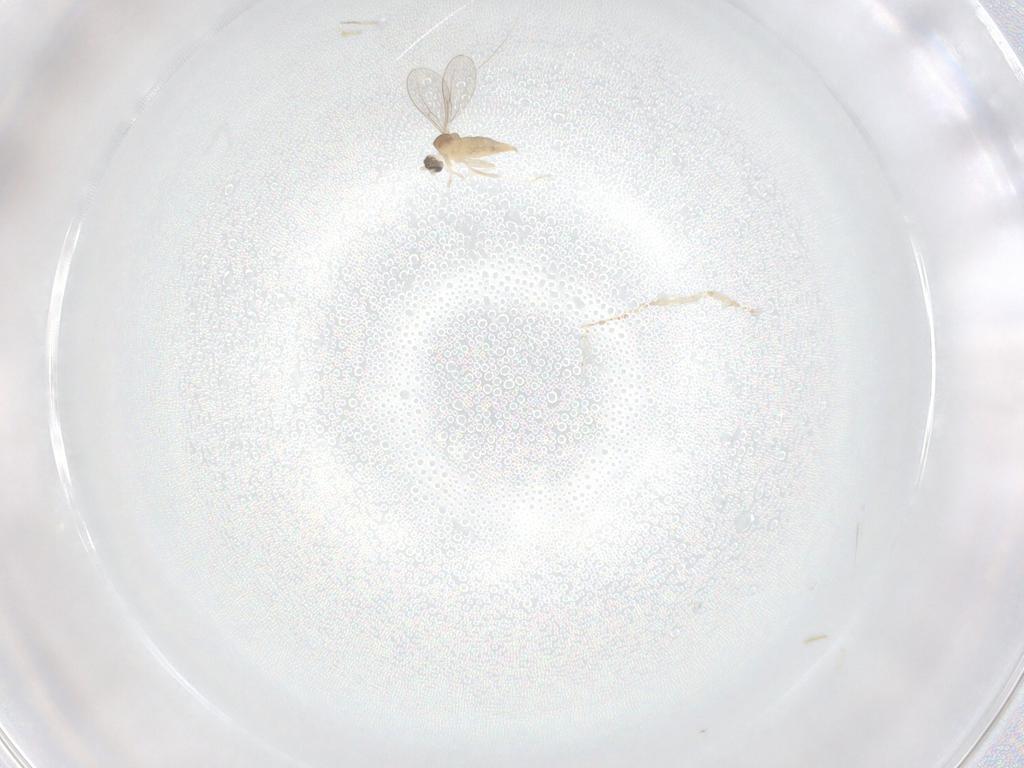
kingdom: Animalia
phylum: Arthropoda
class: Insecta
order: Diptera
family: Cecidomyiidae
